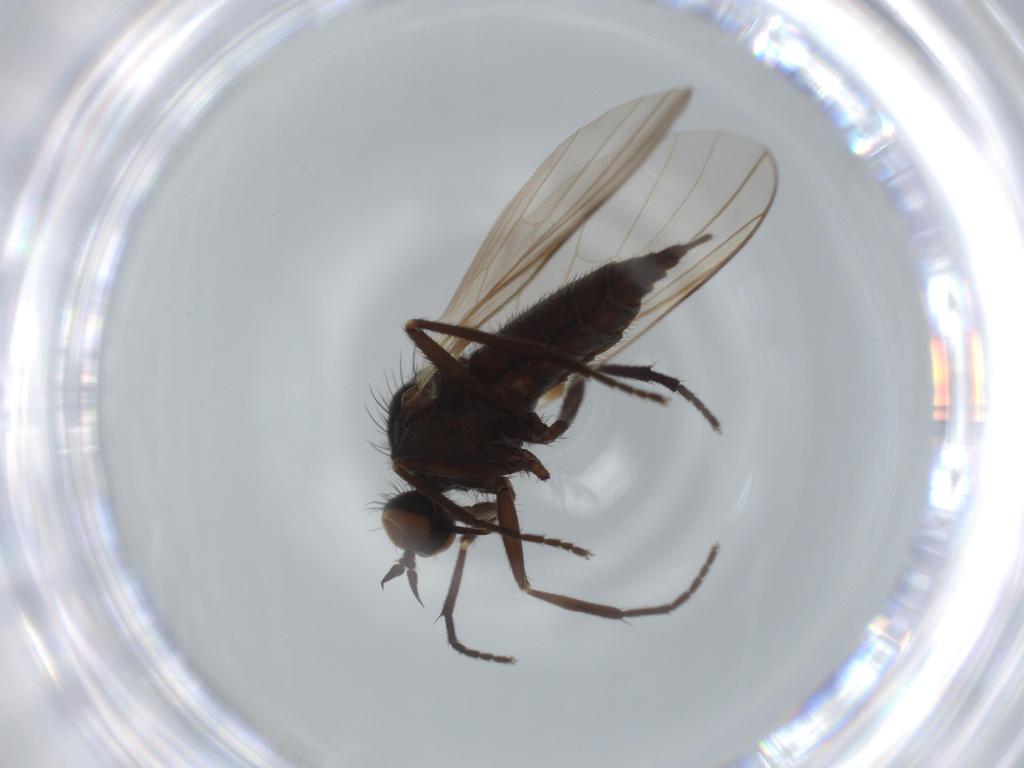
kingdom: Animalia
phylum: Arthropoda
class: Insecta
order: Diptera
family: Empididae
